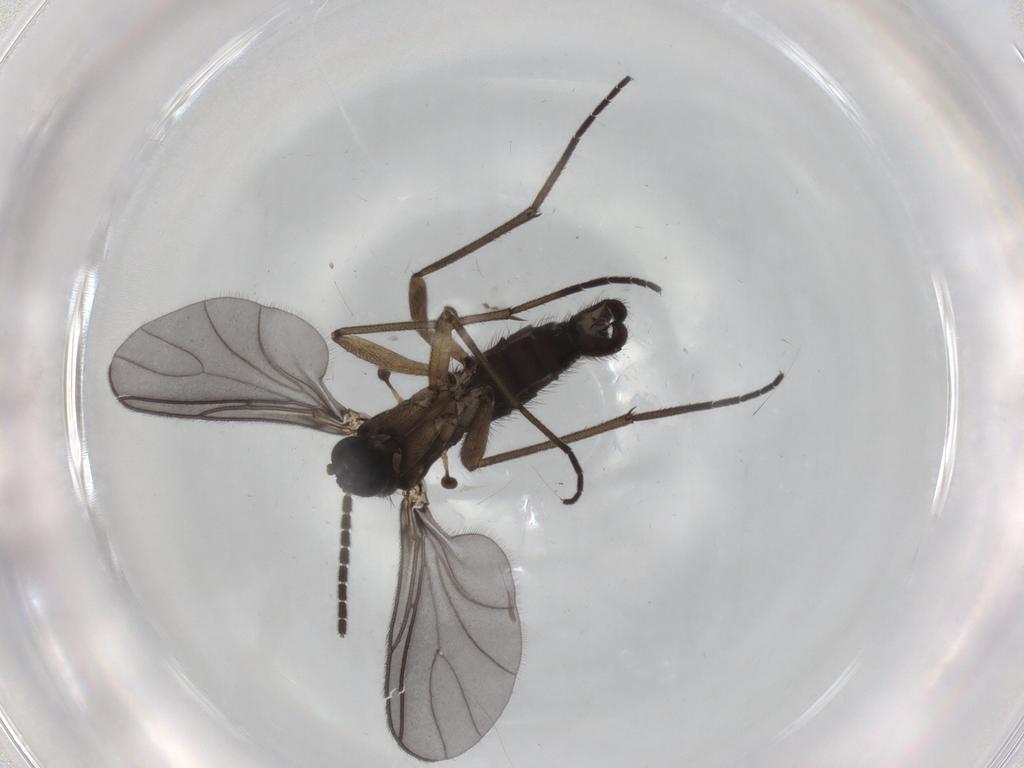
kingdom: Animalia
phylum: Arthropoda
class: Insecta
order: Diptera
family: Sciaridae
